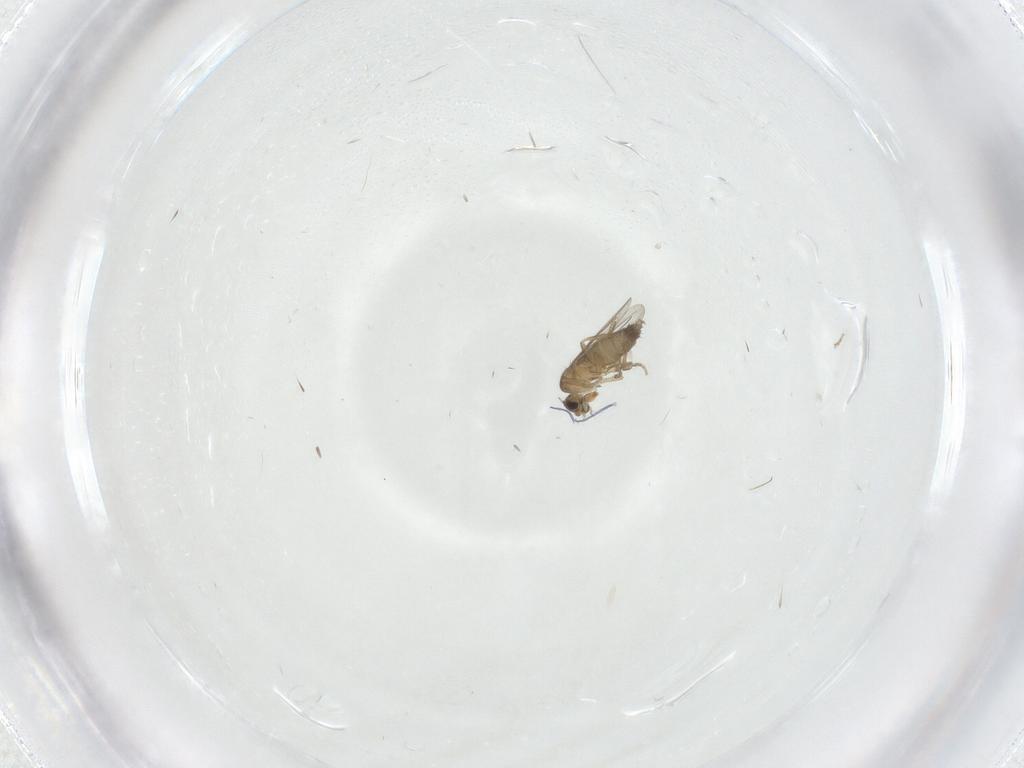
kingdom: Animalia
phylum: Arthropoda
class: Insecta
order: Diptera
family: Phoridae
